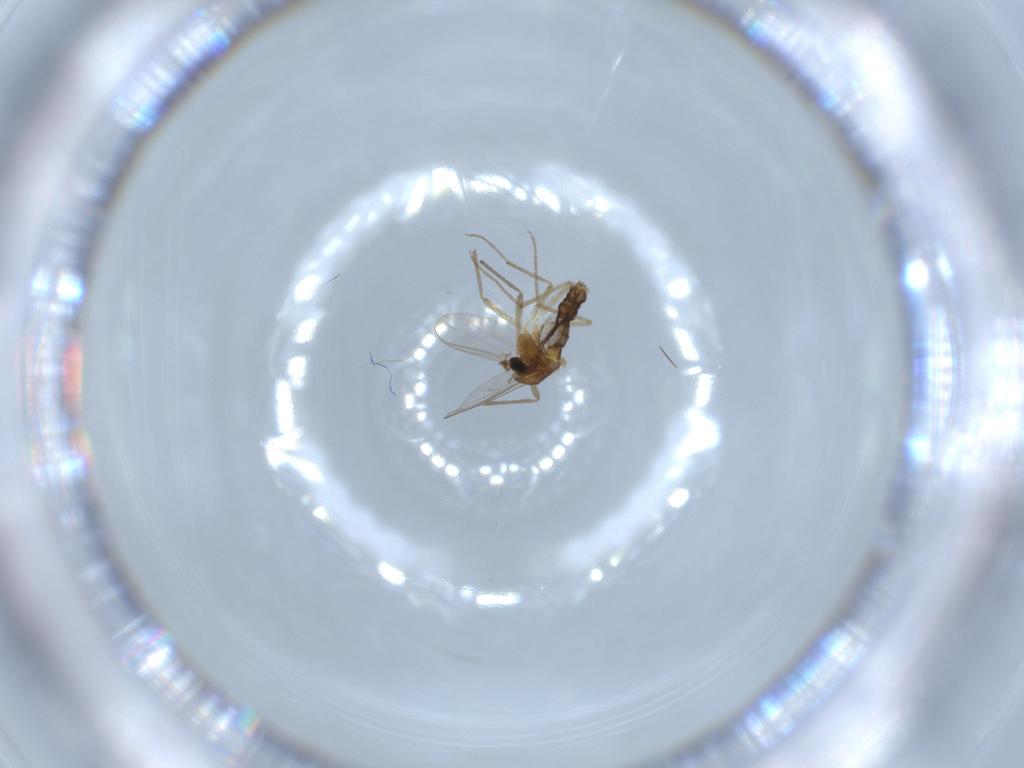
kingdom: Animalia
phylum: Arthropoda
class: Insecta
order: Diptera
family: Chironomidae
